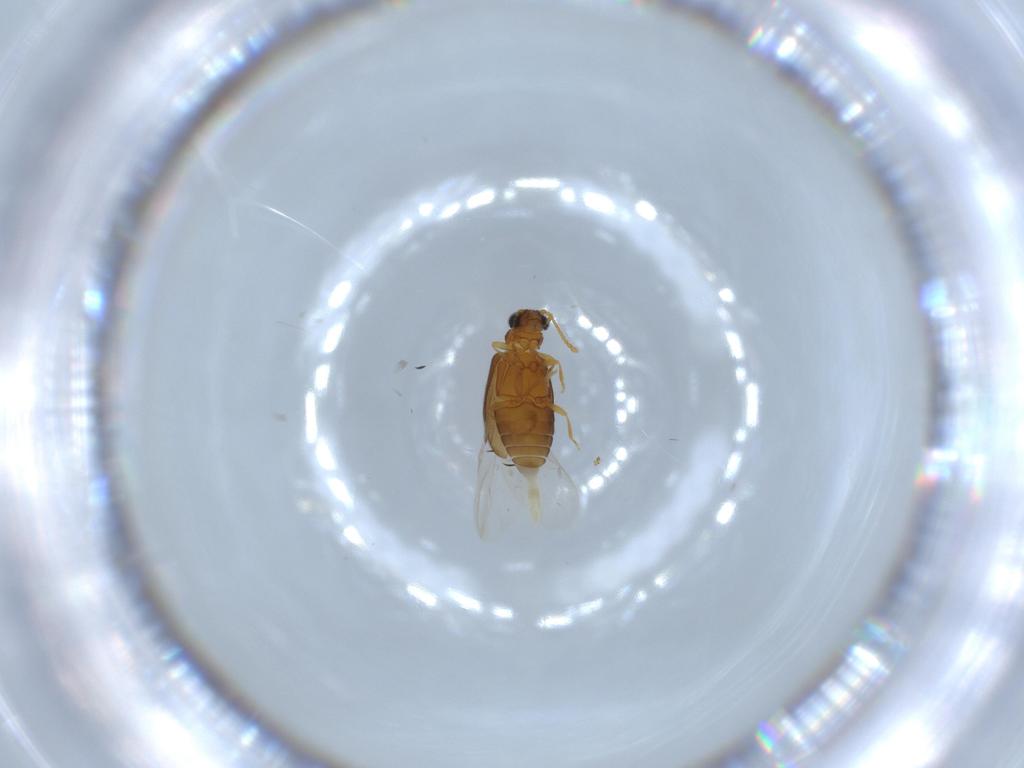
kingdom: Animalia
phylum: Arthropoda
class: Insecta
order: Coleoptera
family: Aderidae
